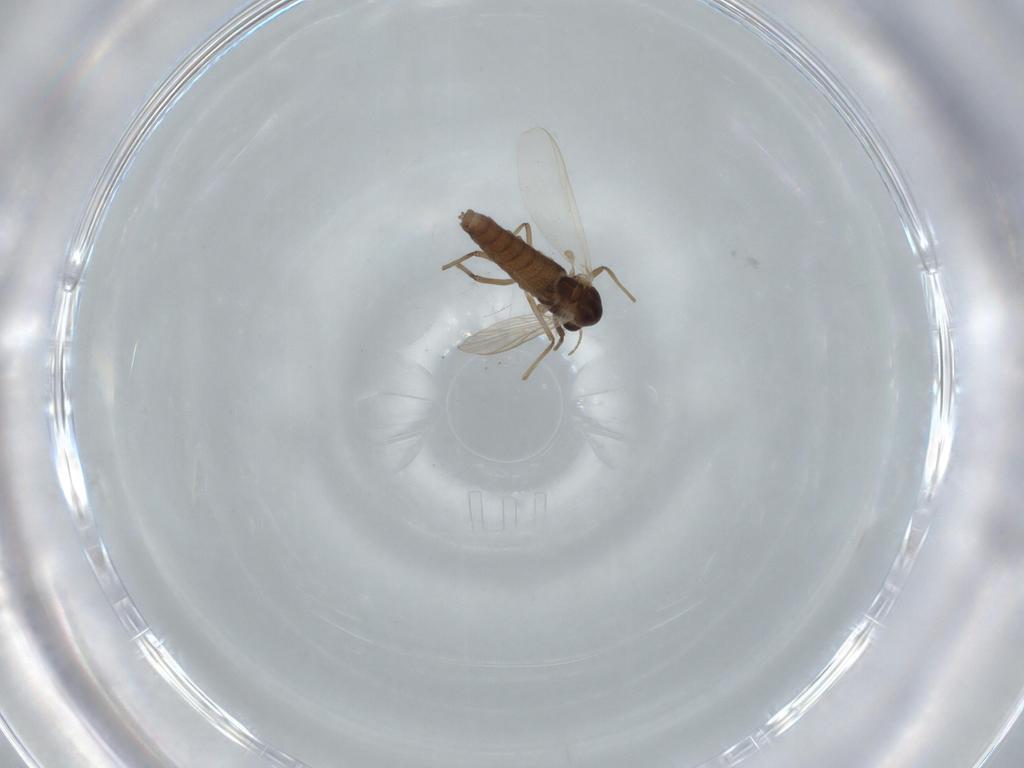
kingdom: Animalia
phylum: Arthropoda
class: Insecta
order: Diptera
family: Chironomidae
